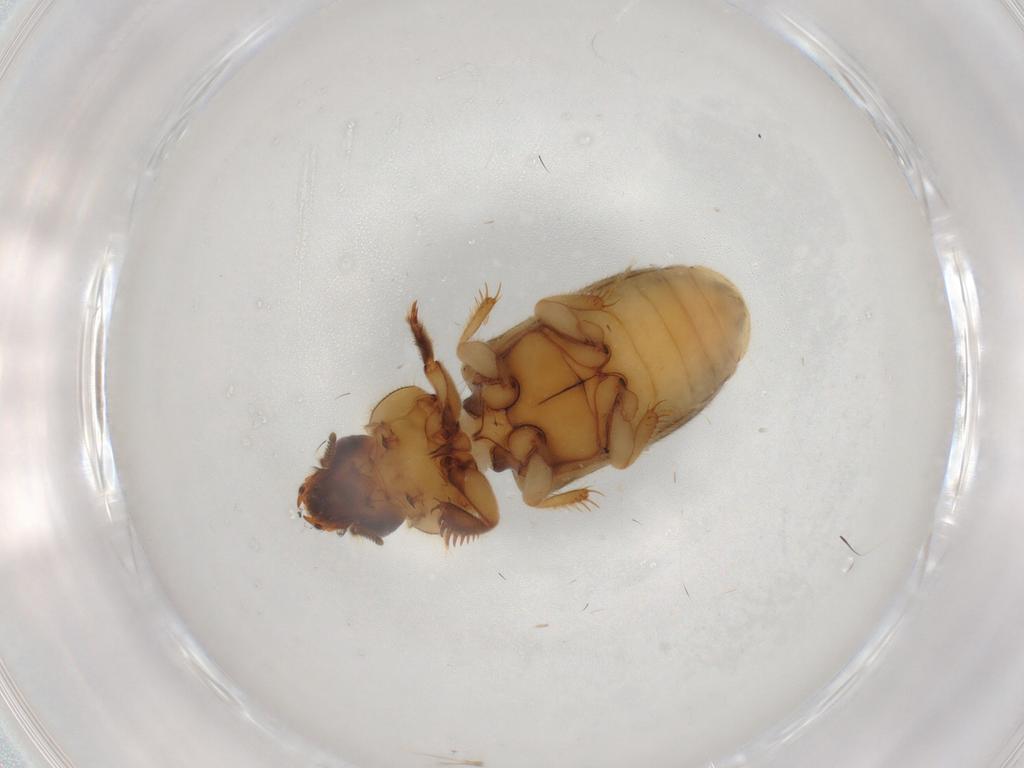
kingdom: Animalia
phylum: Arthropoda
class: Insecta
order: Coleoptera
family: Heteroceridae
